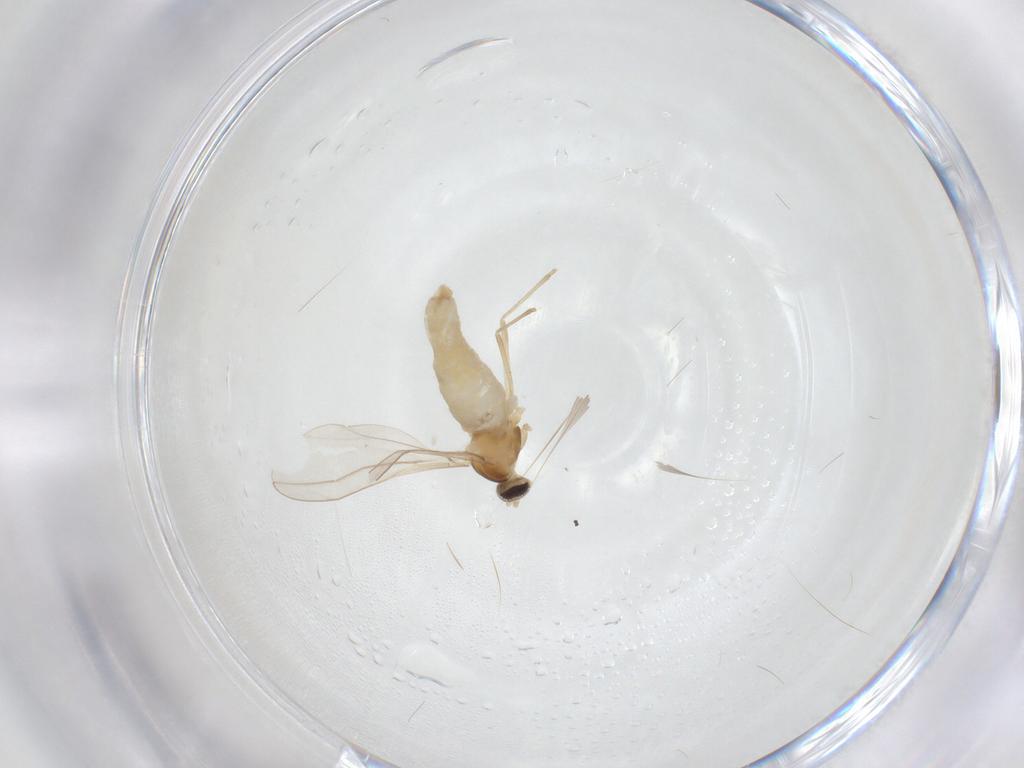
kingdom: Animalia
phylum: Arthropoda
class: Insecta
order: Diptera
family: Cecidomyiidae
